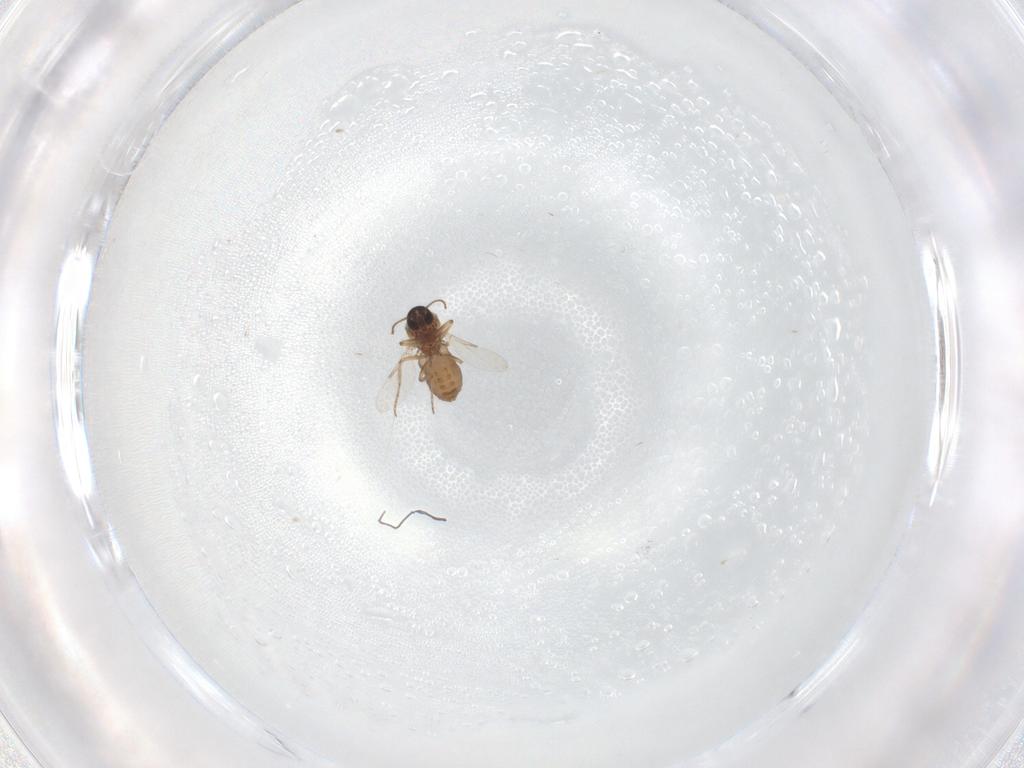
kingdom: Animalia
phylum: Arthropoda
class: Insecta
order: Diptera
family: Ceratopogonidae
